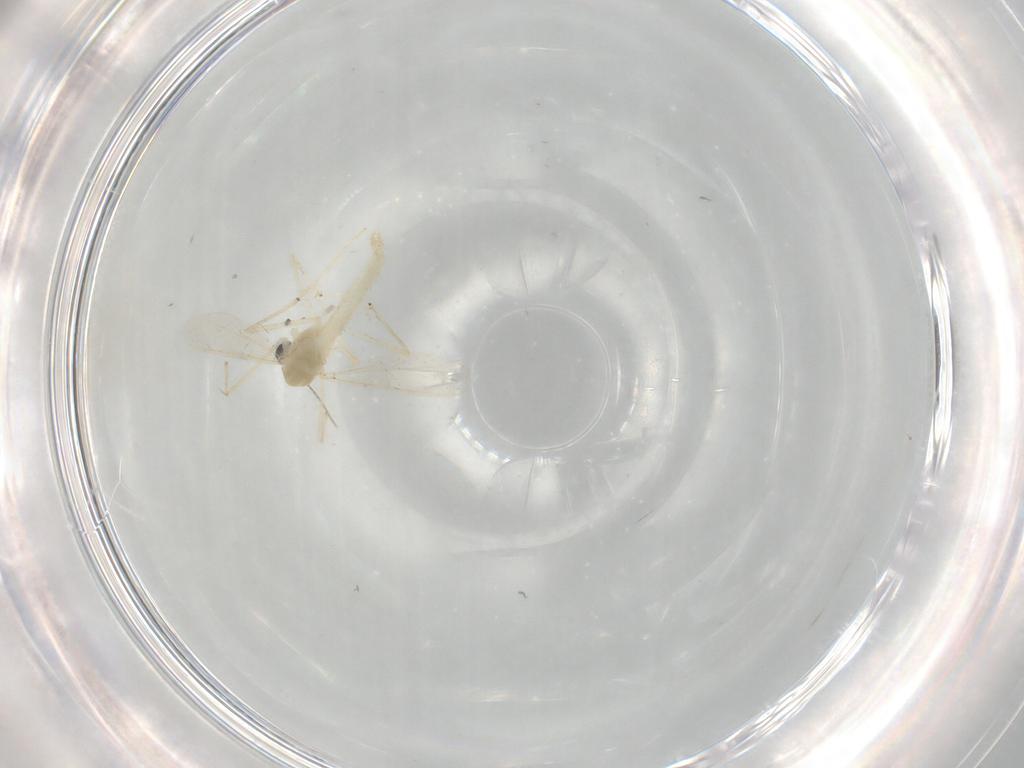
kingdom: Animalia
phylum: Arthropoda
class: Insecta
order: Diptera
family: Chironomidae
